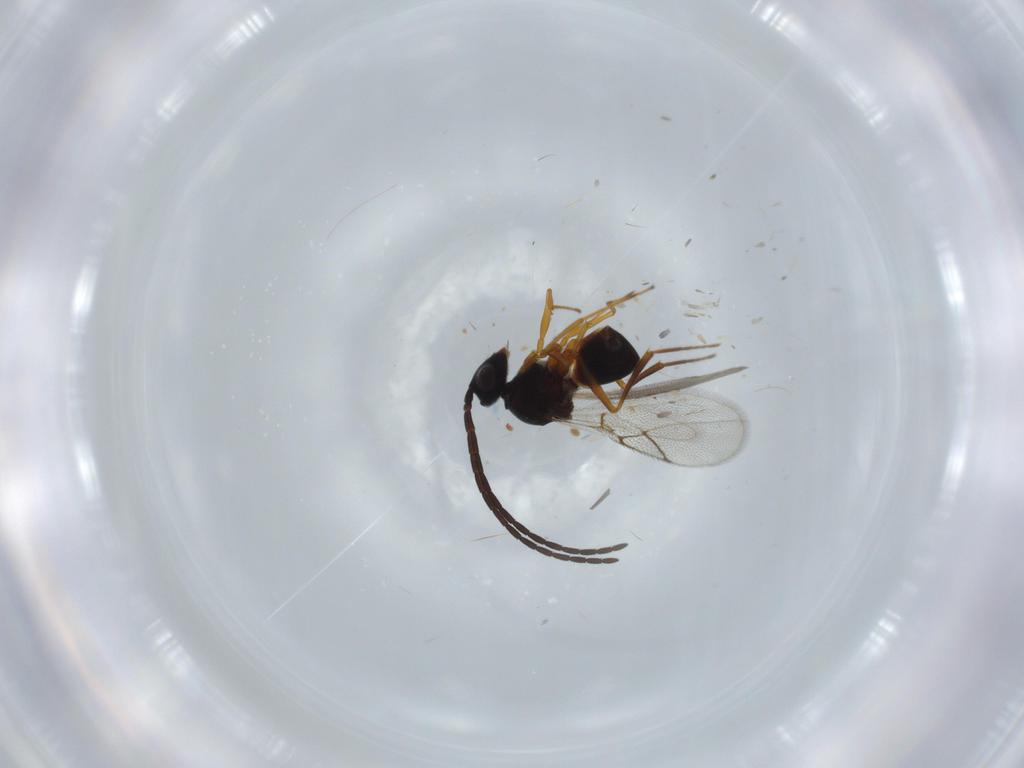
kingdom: Animalia
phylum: Arthropoda
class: Insecta
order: Hymenoptera
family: Figitidae
